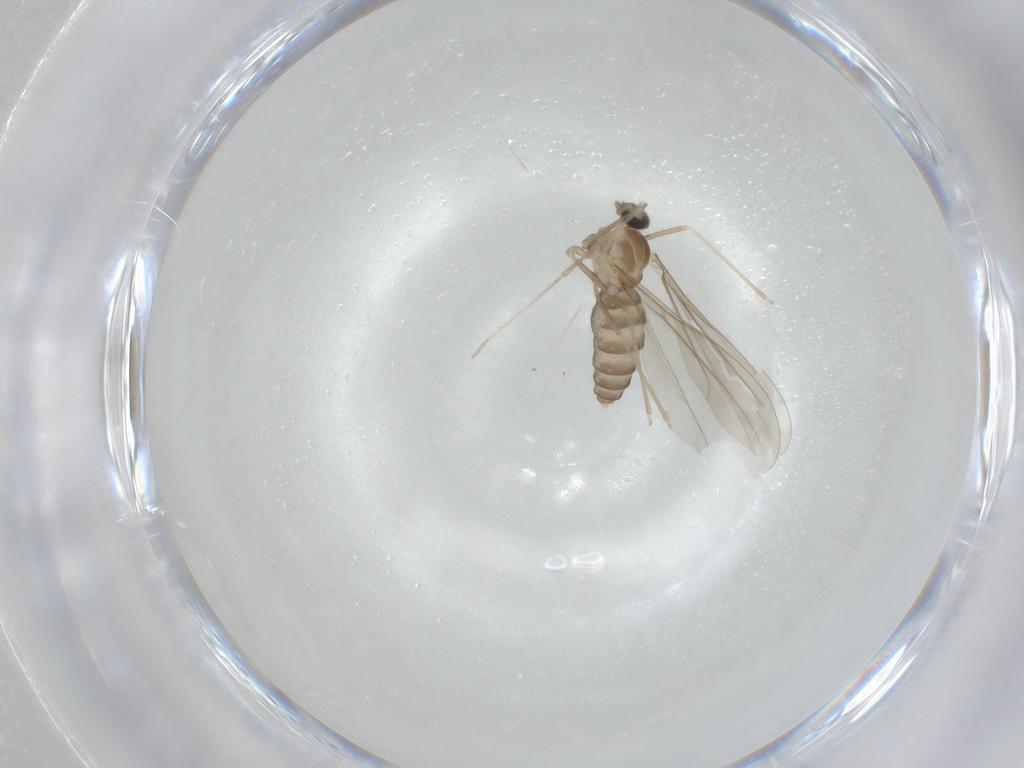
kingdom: Animalia
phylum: Arthropoda
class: Insecta
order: Diptera
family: Cecidomyiidae
